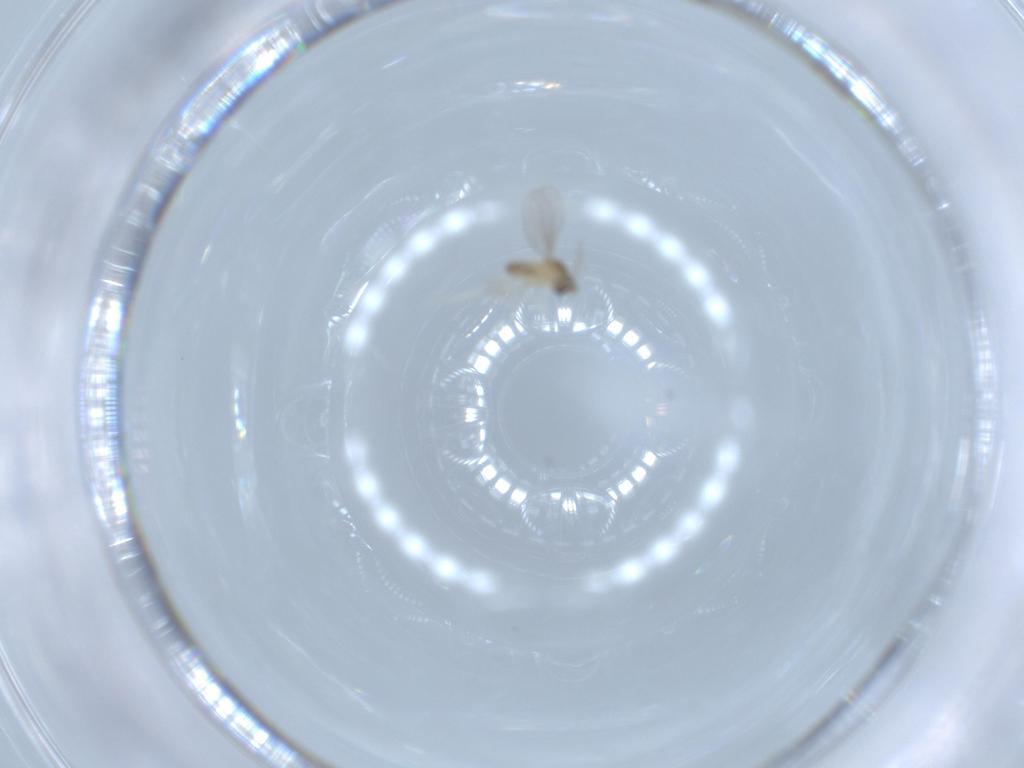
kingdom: Animalia
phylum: Arthropoda
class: Insecta
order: Diptera
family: Cecidomyiidae
